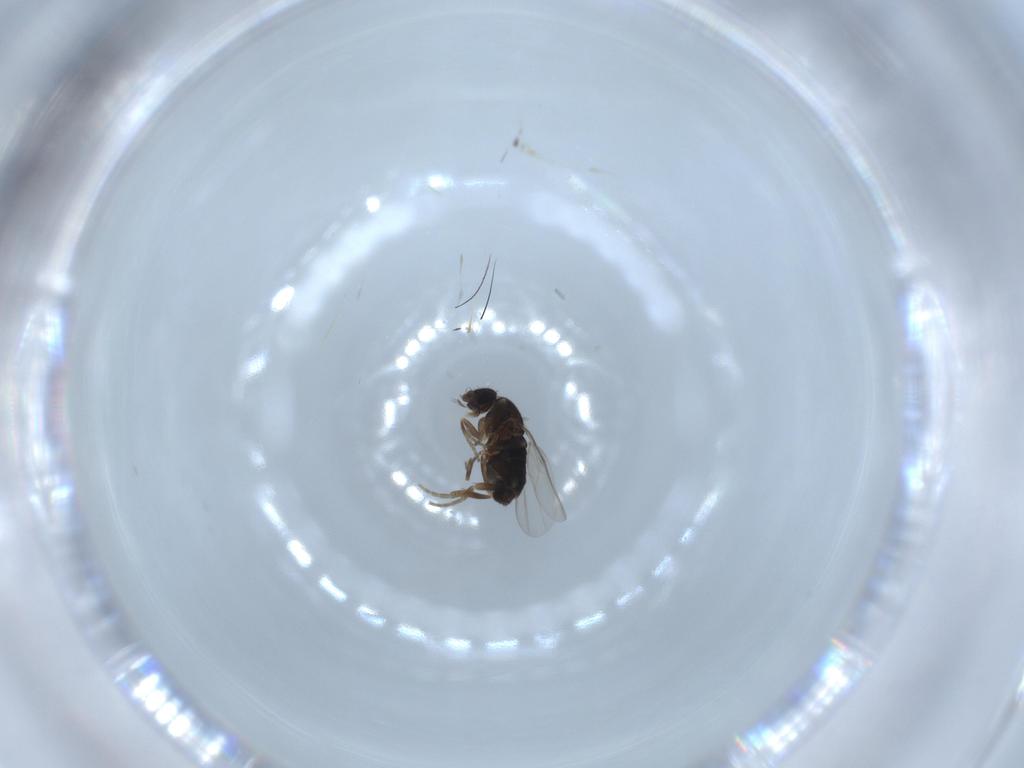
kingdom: Animalia
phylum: Arthropoda
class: Insecta
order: Diptera
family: Phoridae
